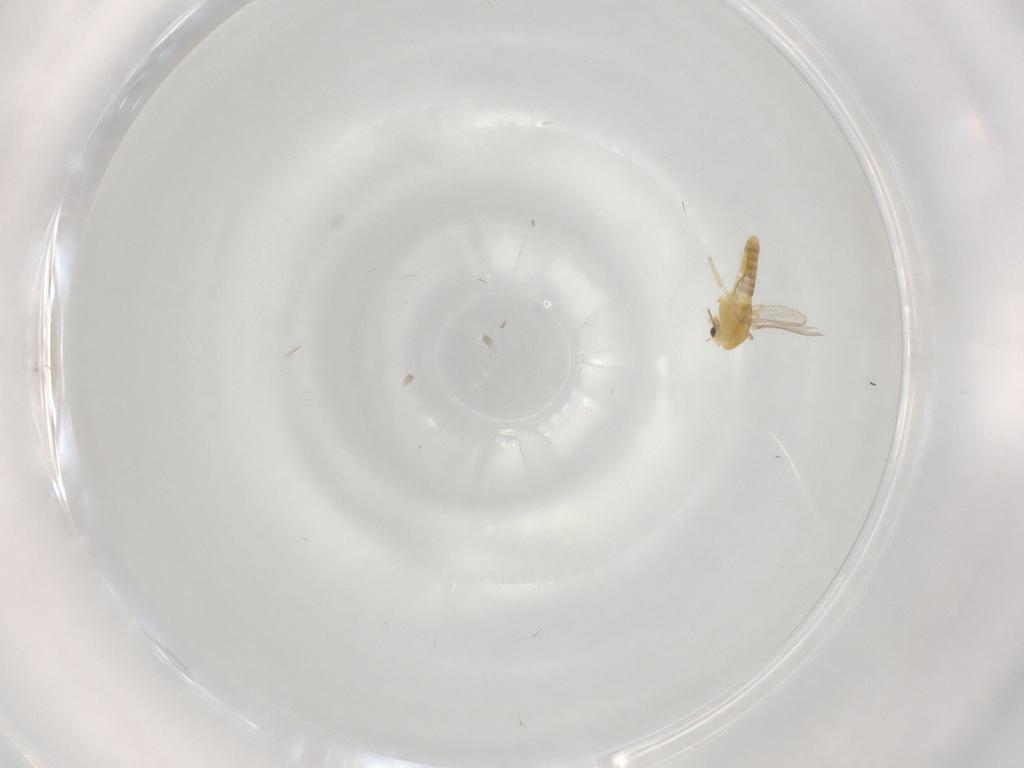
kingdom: Animalia
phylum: Arthropoda
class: Insecta
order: Diptera
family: Chironomidae
